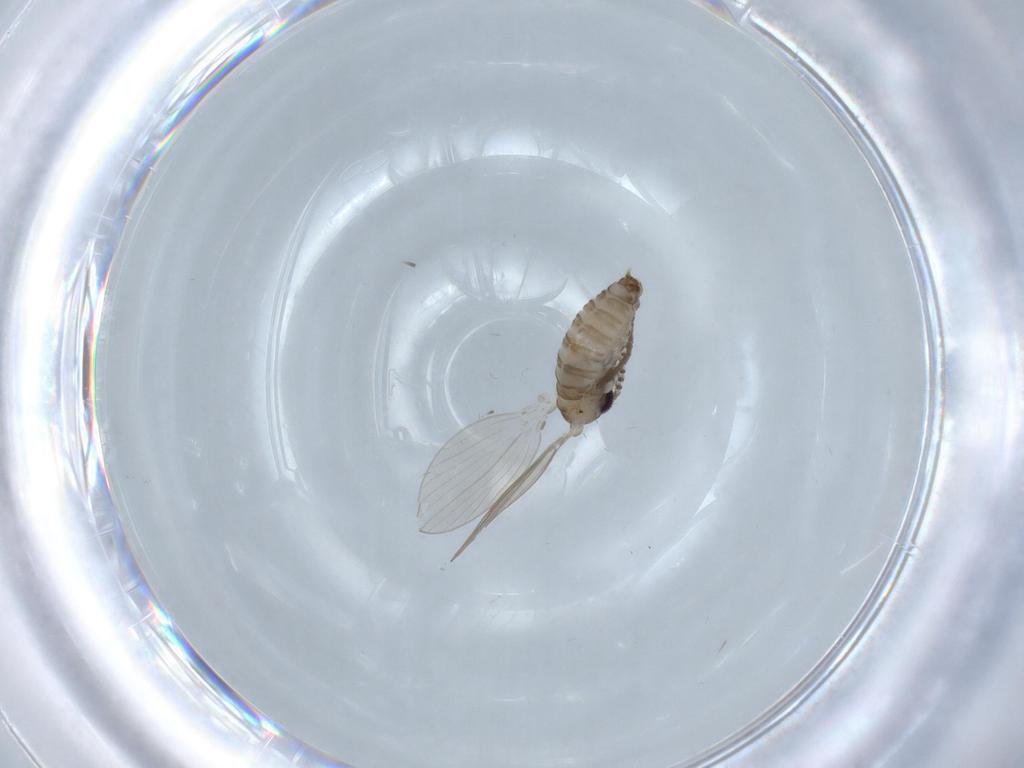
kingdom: Animalia
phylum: Arthropoda
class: Insecta
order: Diptera
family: Psychodidae
